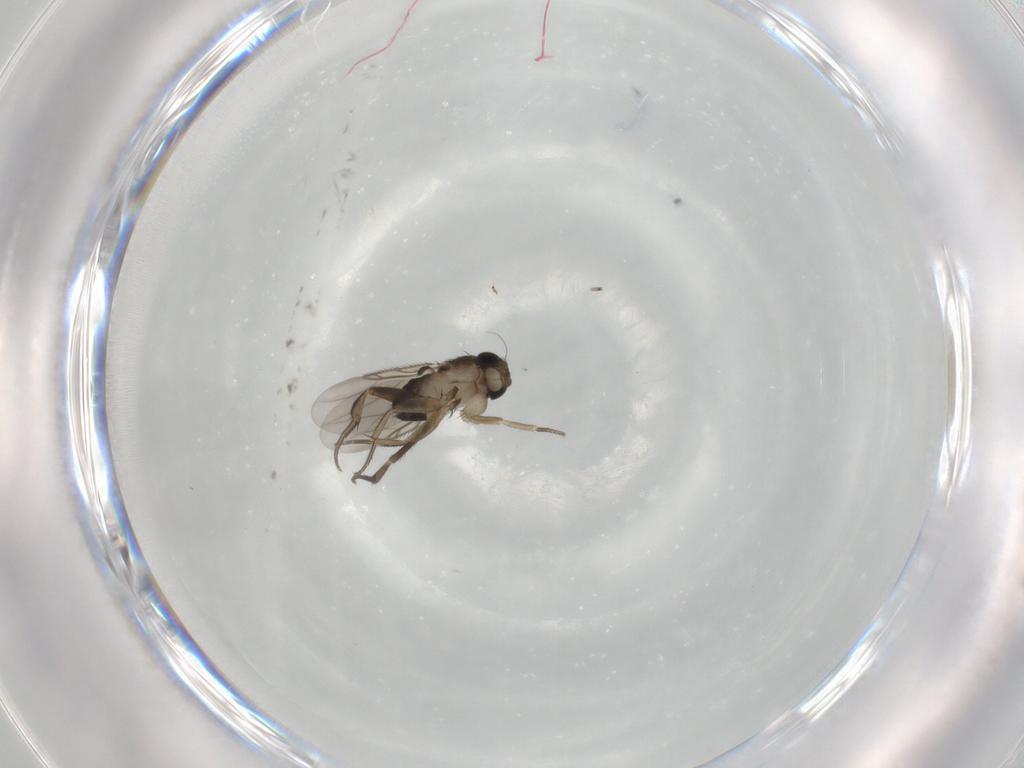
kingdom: Animalia
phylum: Arthropoda
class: Insecta
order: Diptera
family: Phoridae
